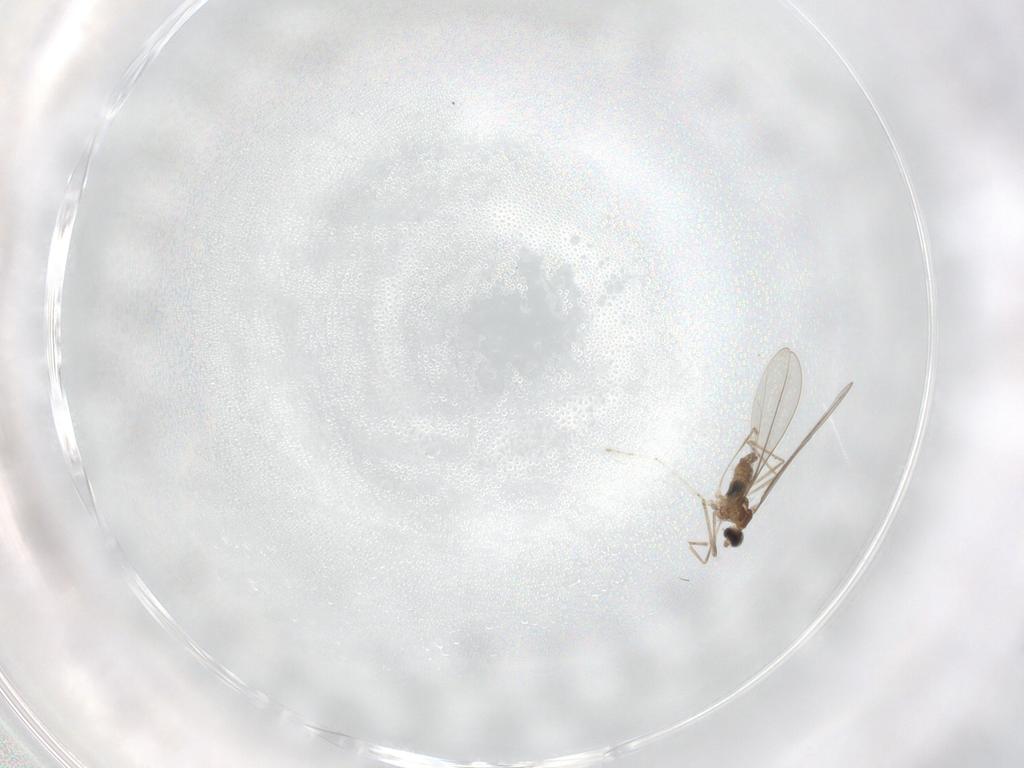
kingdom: Animalia
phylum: Arthropoda
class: Insecta
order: Diptera
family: Cecidomyiidae
